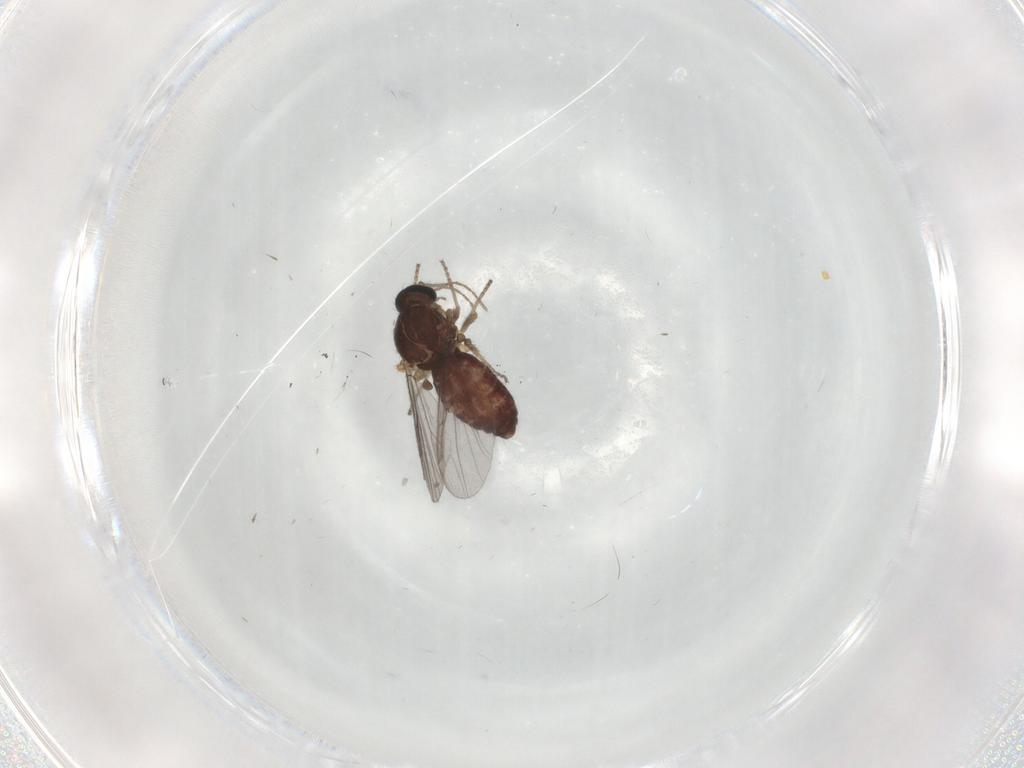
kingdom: Animalia
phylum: Arthropoda
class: Insecta
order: Diptera
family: Ceratopogonidae
